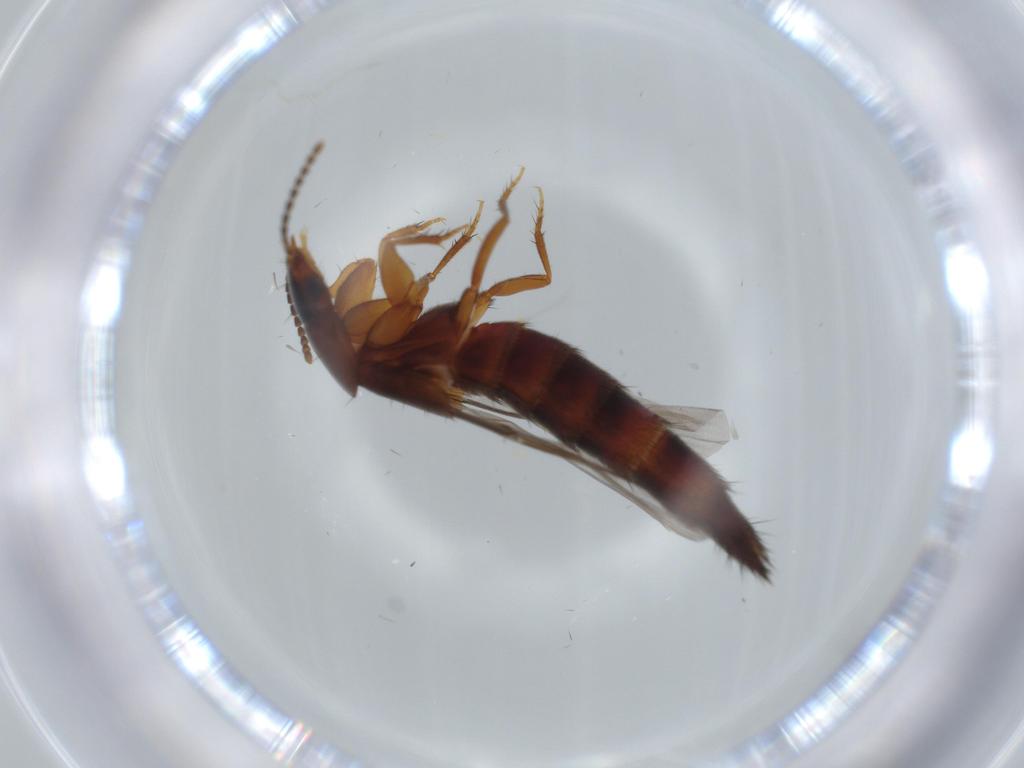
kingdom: Animalia
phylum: Arthropoda
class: Insecta
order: Coleoptera
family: Staphylinidae
